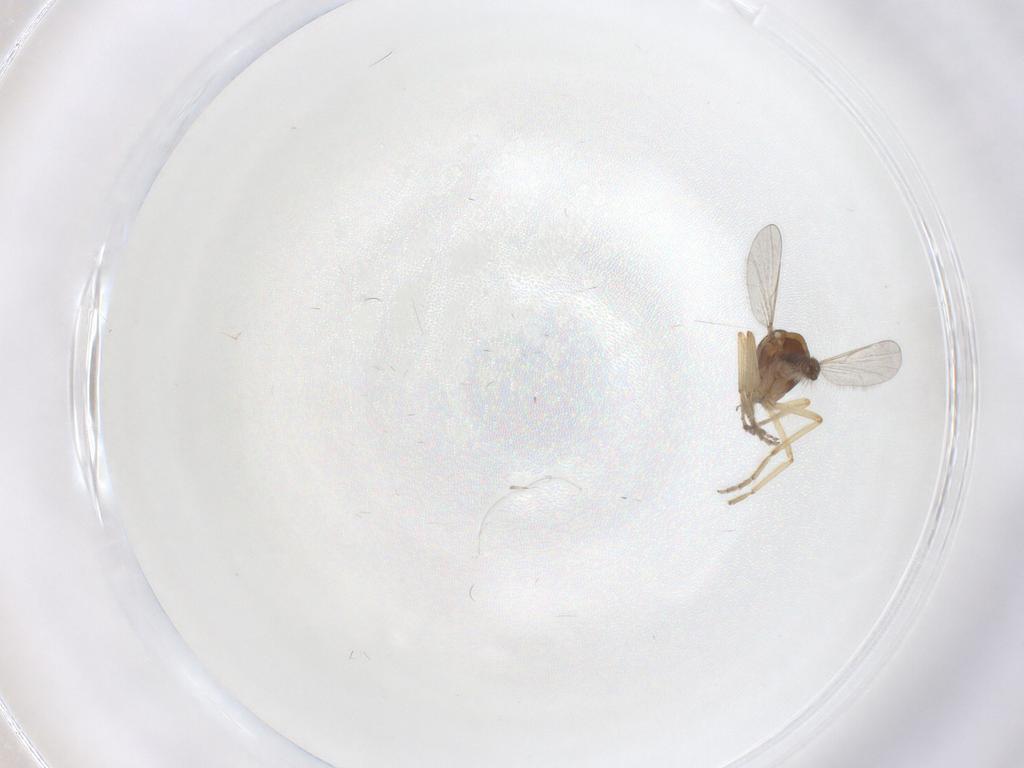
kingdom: Animalia
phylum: Arthropoda
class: Insecta
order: Diptera
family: Ceratopogonidae
